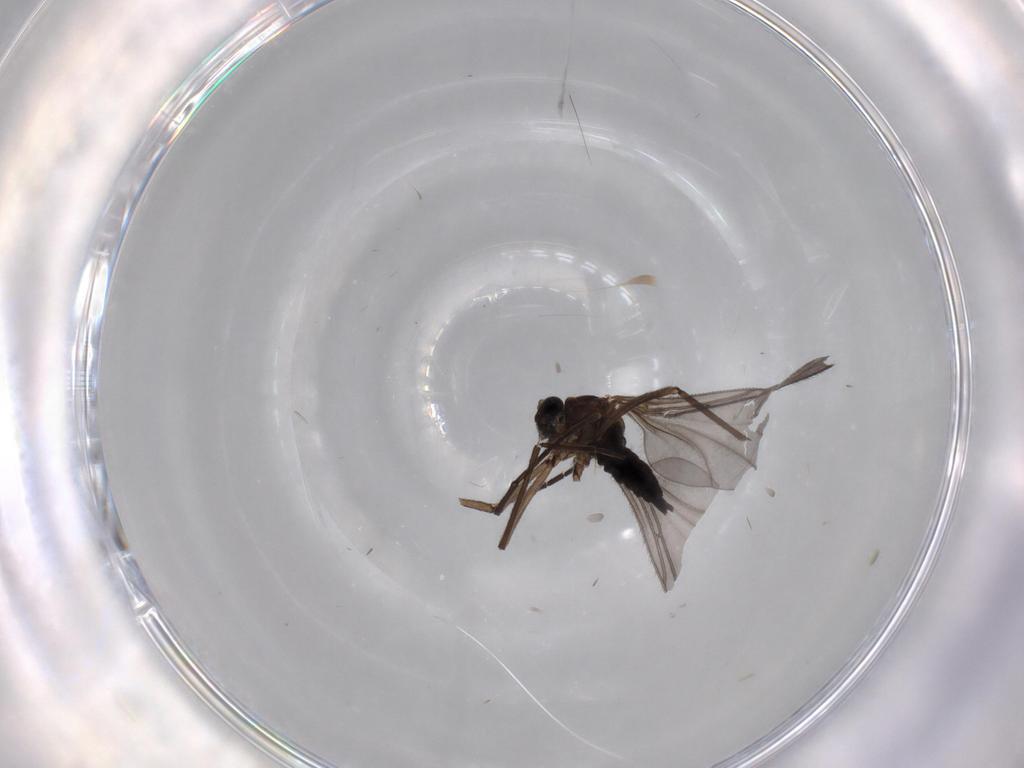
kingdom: Animalia
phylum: Arthropoda
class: Insecta
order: Diptera
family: Sciaridae
